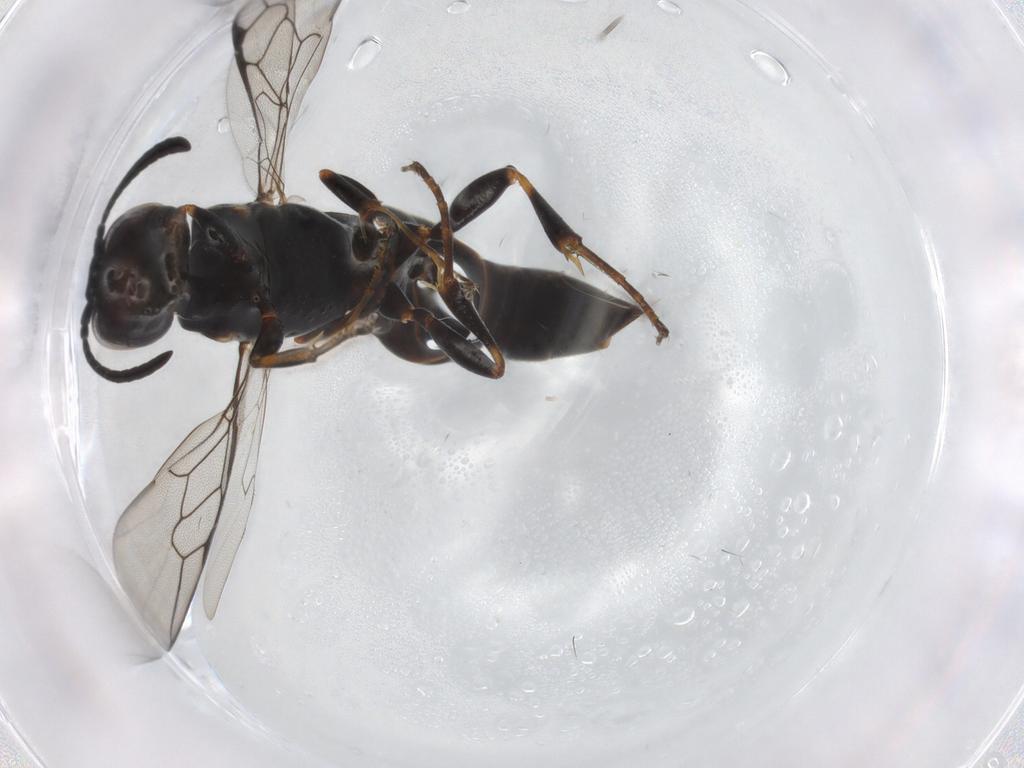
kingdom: Animalia
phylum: Arthropoda
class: Insecta
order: Hymenoptera
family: Crabronidae
